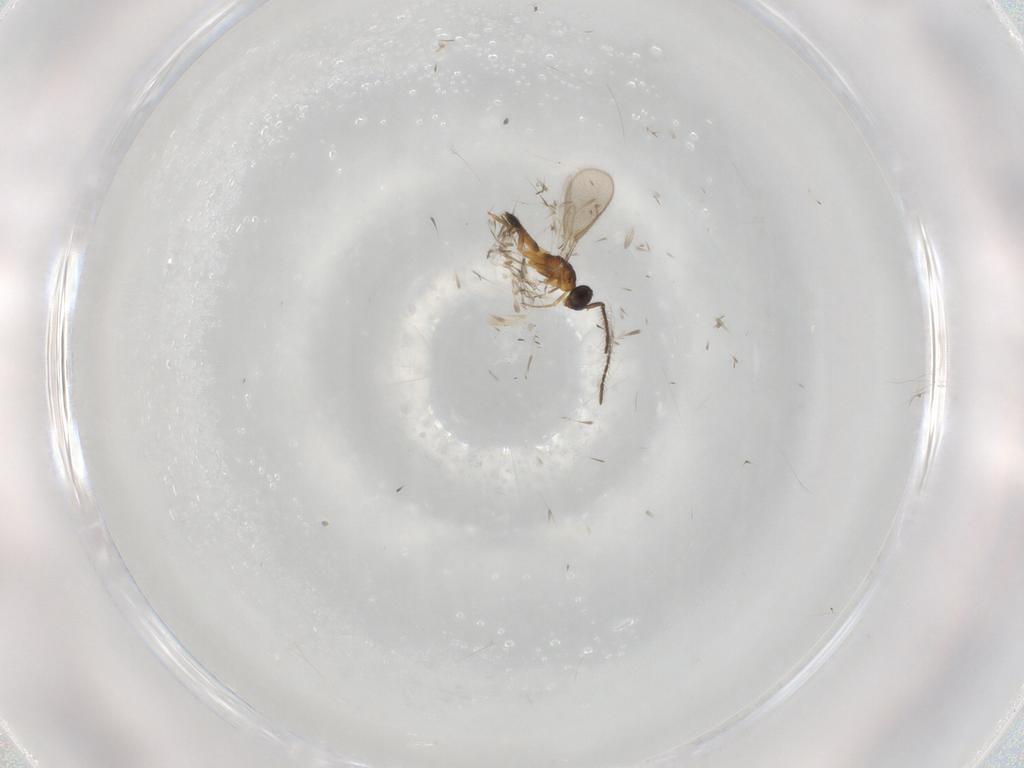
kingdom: Animalia
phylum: Arthropoda
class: Insecta
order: Hymenoptera
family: Eupelmidae
